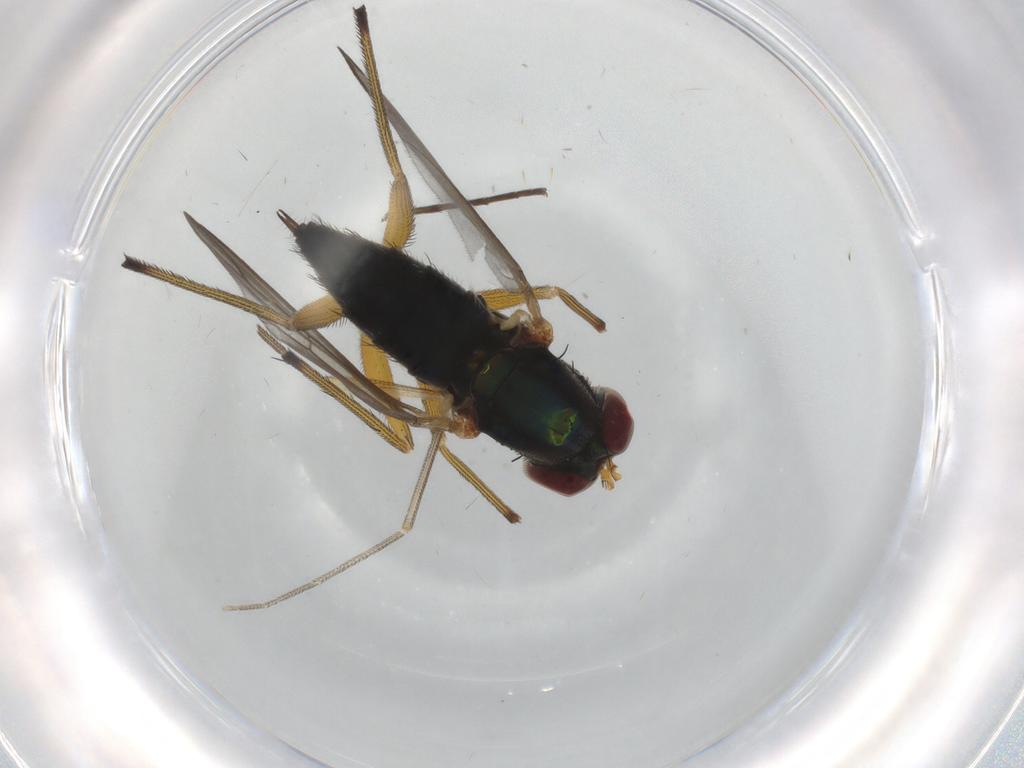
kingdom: Animalia
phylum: Arthropoda
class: Insecta
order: Diptera
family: Dolichopodidae
